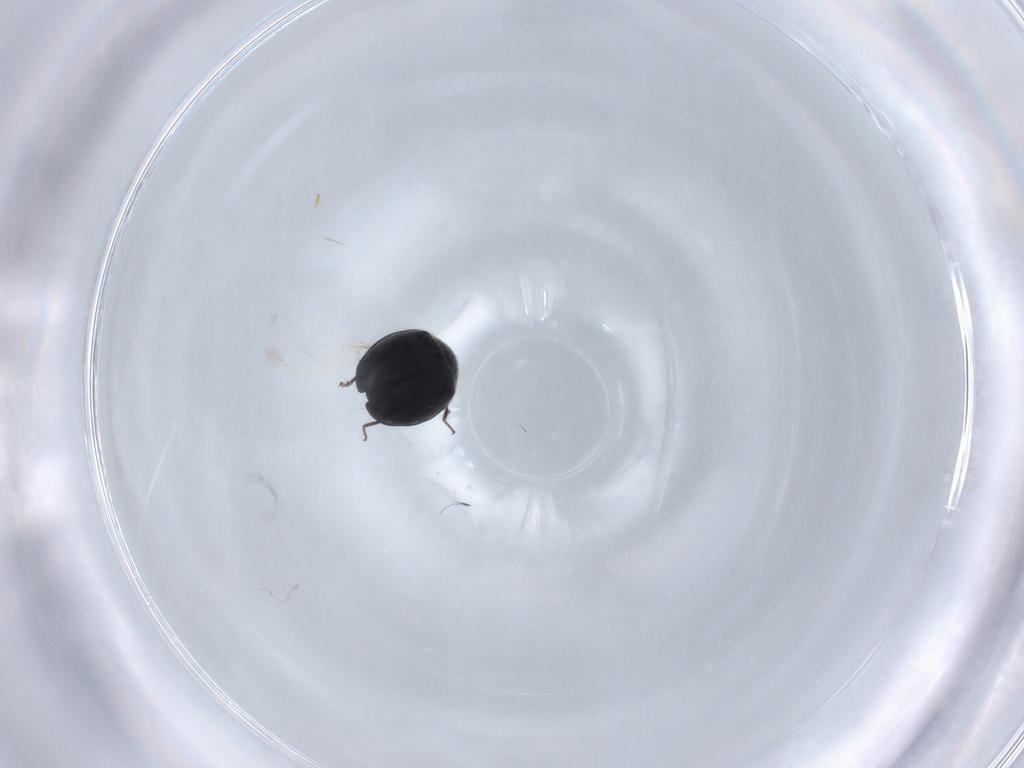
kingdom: Animalia
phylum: Arthropoda
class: Insecta
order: Coleoptera
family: Coccinellidae
